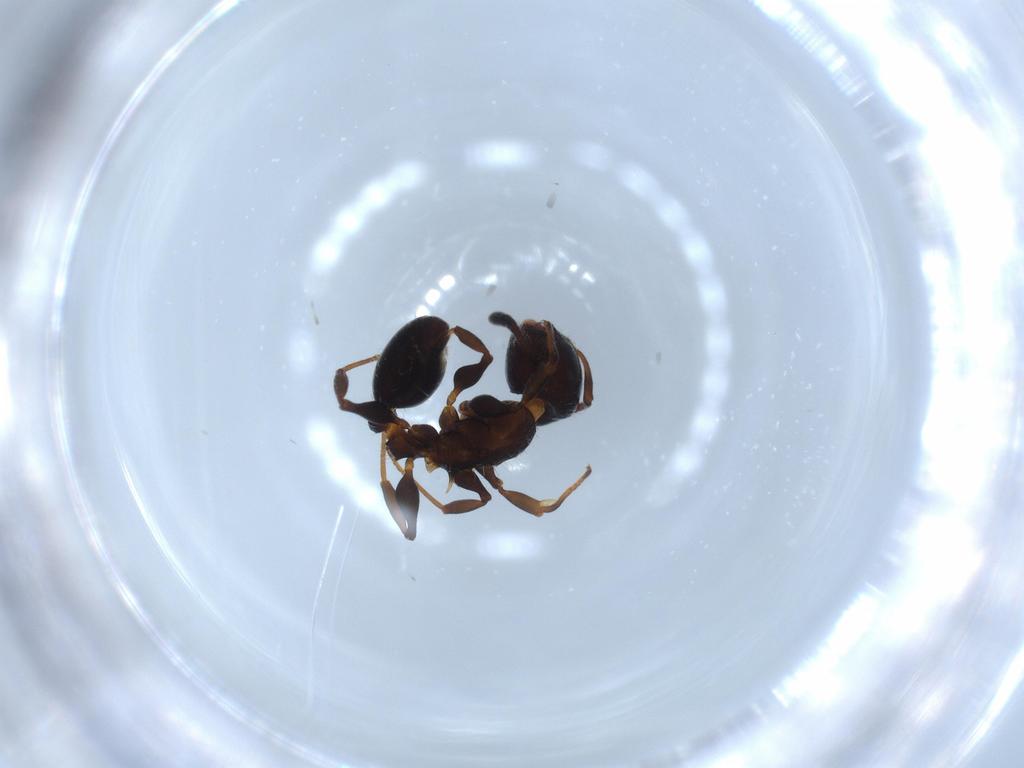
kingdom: Animalia
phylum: Arthropoda
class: Insecta
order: Hymenoptera
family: Formicidae
